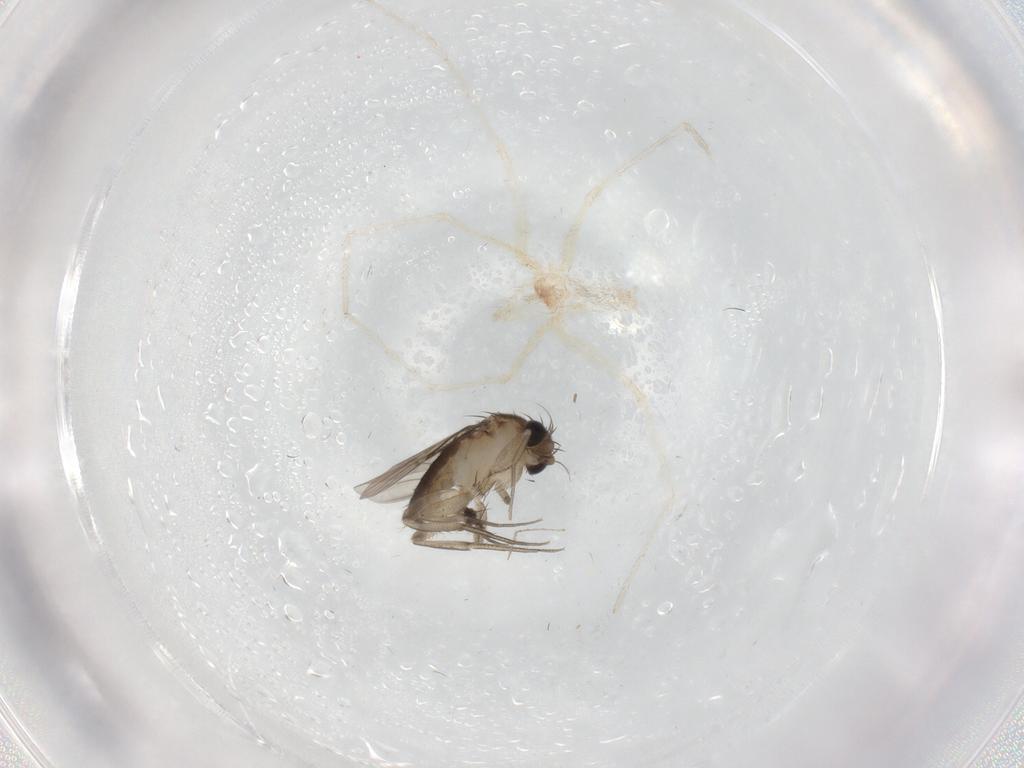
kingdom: Animalia
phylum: Arthropoda
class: Insecta
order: Diptera
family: Phoridae
